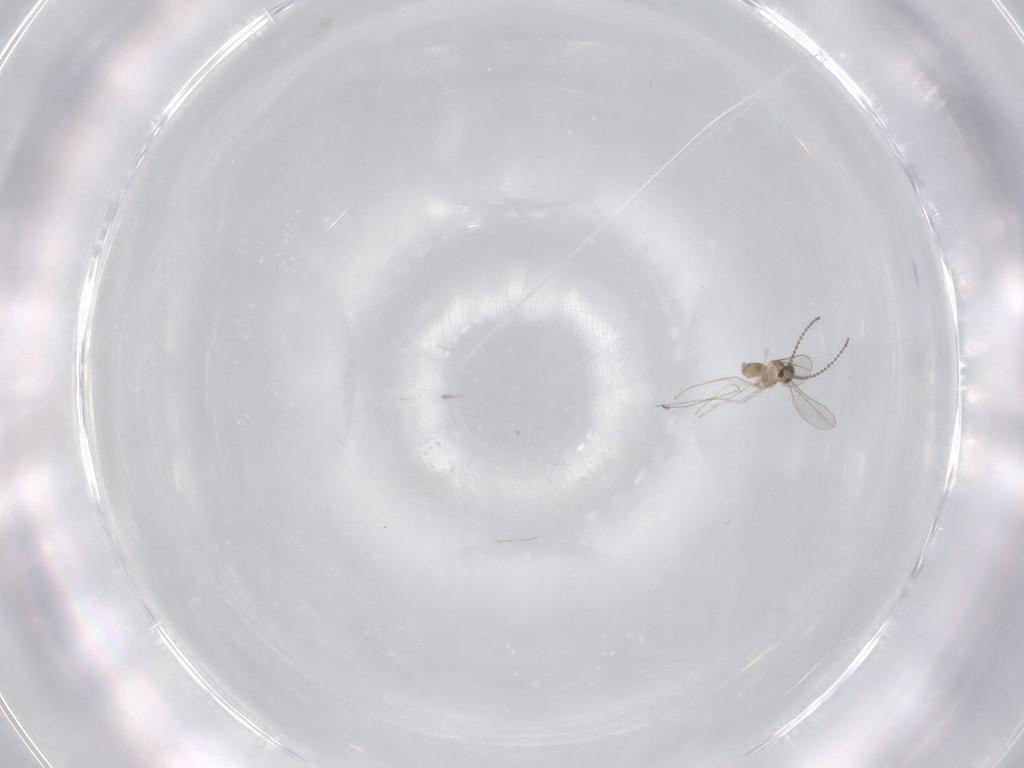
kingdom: Animalia
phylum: Arthropoda
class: Insecta
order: Diptera
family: Cecidomyiidae
